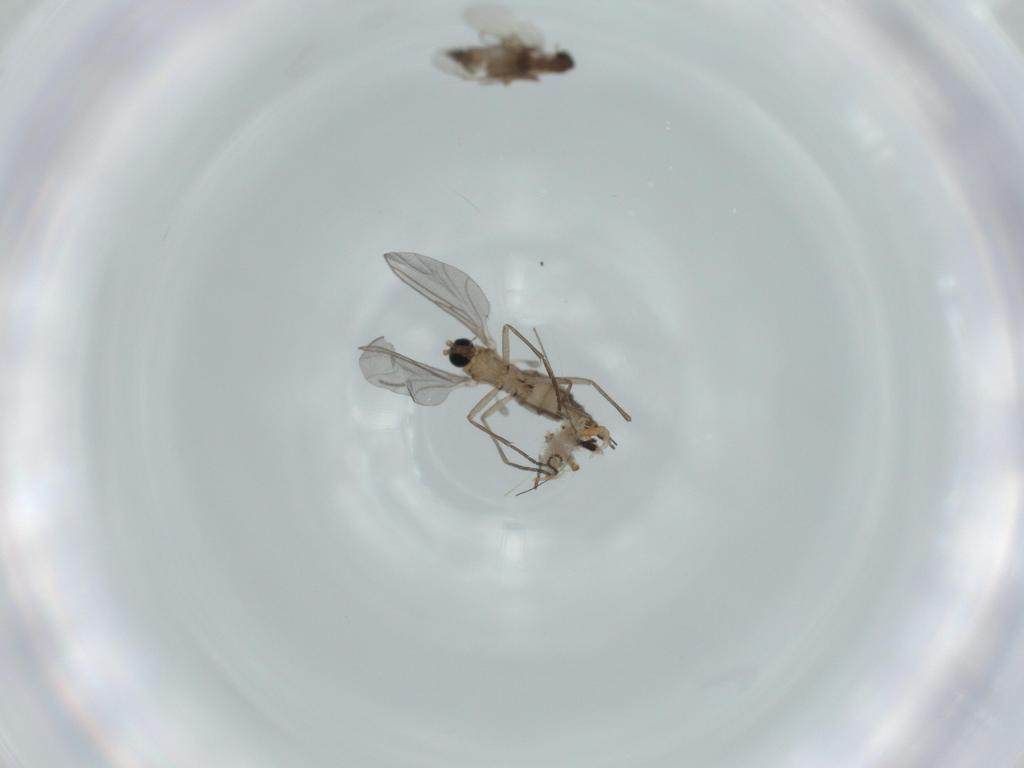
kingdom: Animalia
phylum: Arthropoda
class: Insecta
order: Diptera
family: Phoridae
